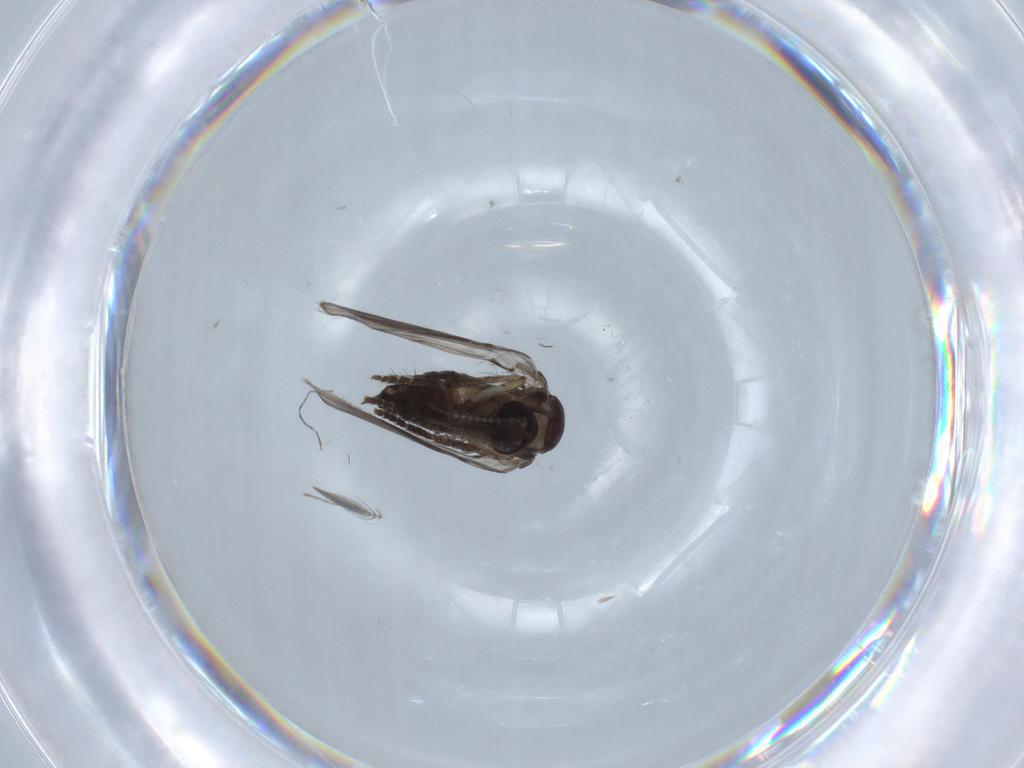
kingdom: Animalia
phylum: Arthropoda
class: Insecta
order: Diptera
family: Psychodidae
